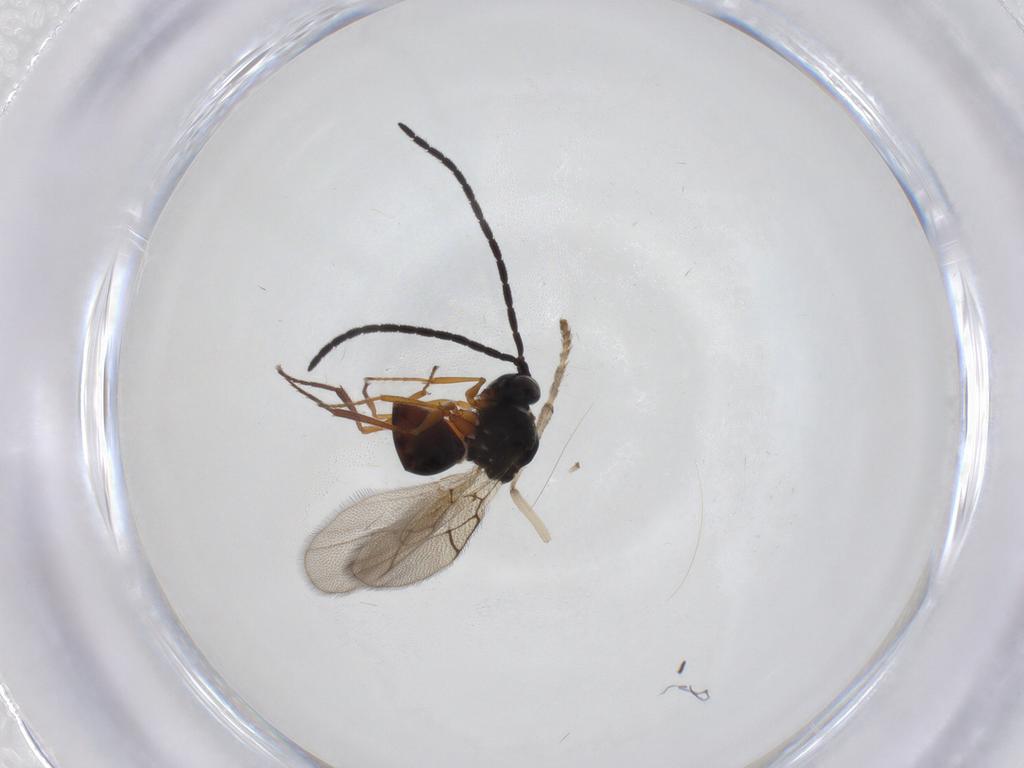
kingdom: Animalia
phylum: Arthropoda
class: Insecta
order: Hymenoptera
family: Figitidae
